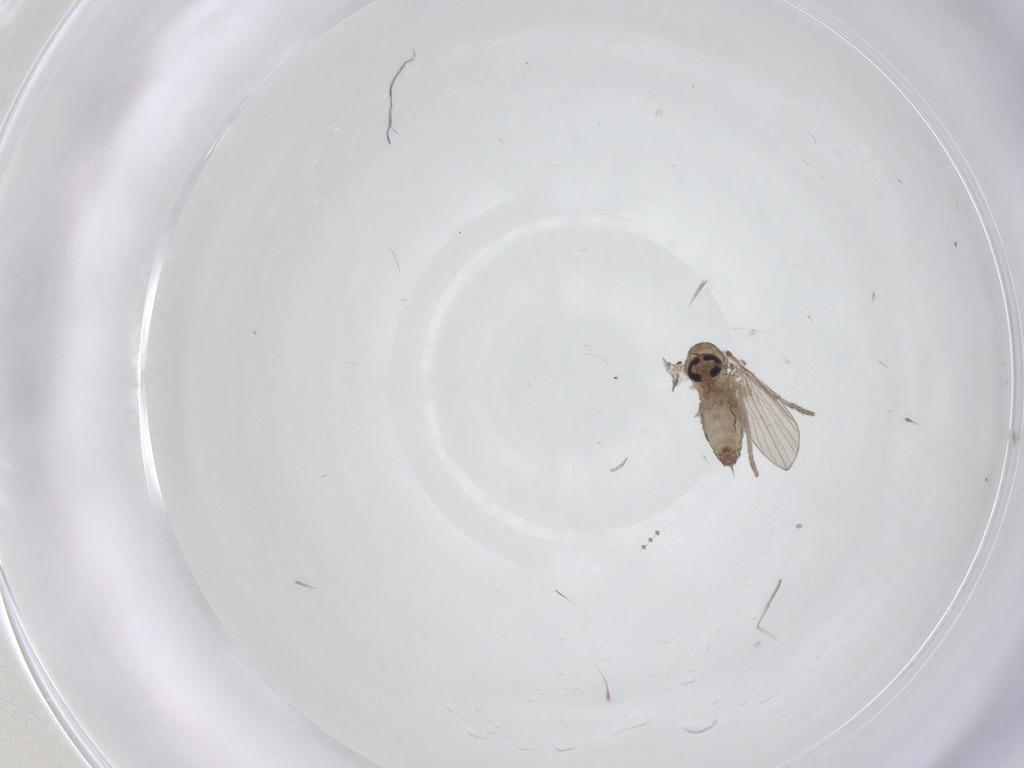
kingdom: Animalia
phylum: Arthropoda
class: Insecta
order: Diptera
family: Psychodidae
